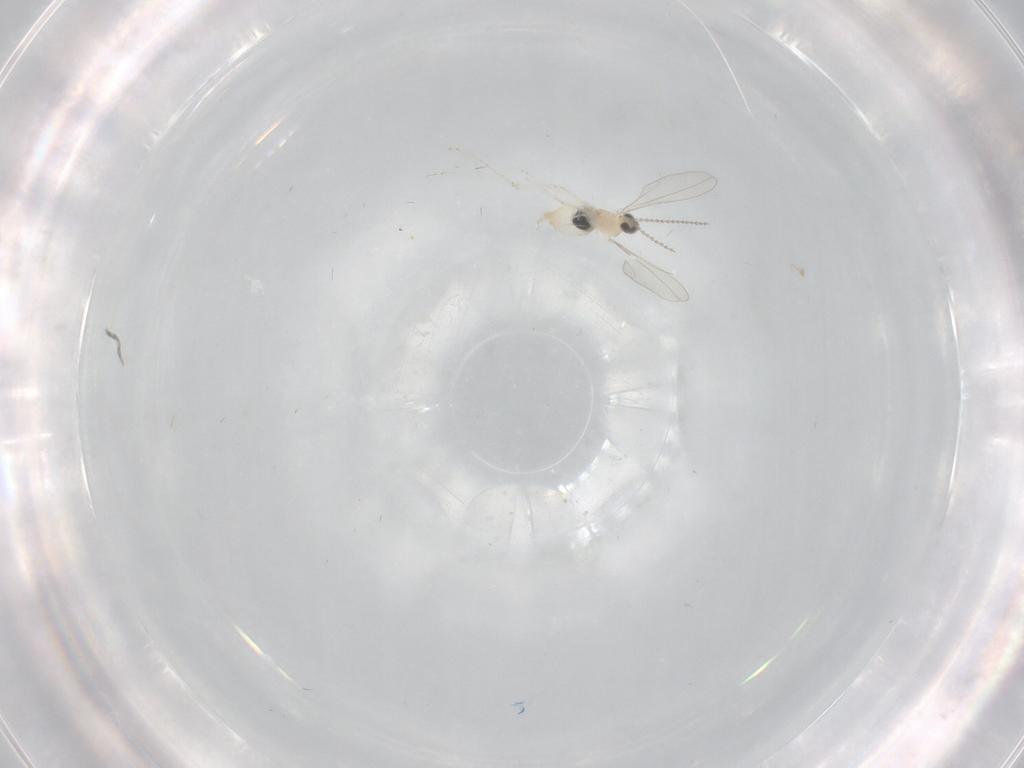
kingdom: Animalia
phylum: Arthropoda
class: Insecta
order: Diptera
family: Cecidomyiidae
